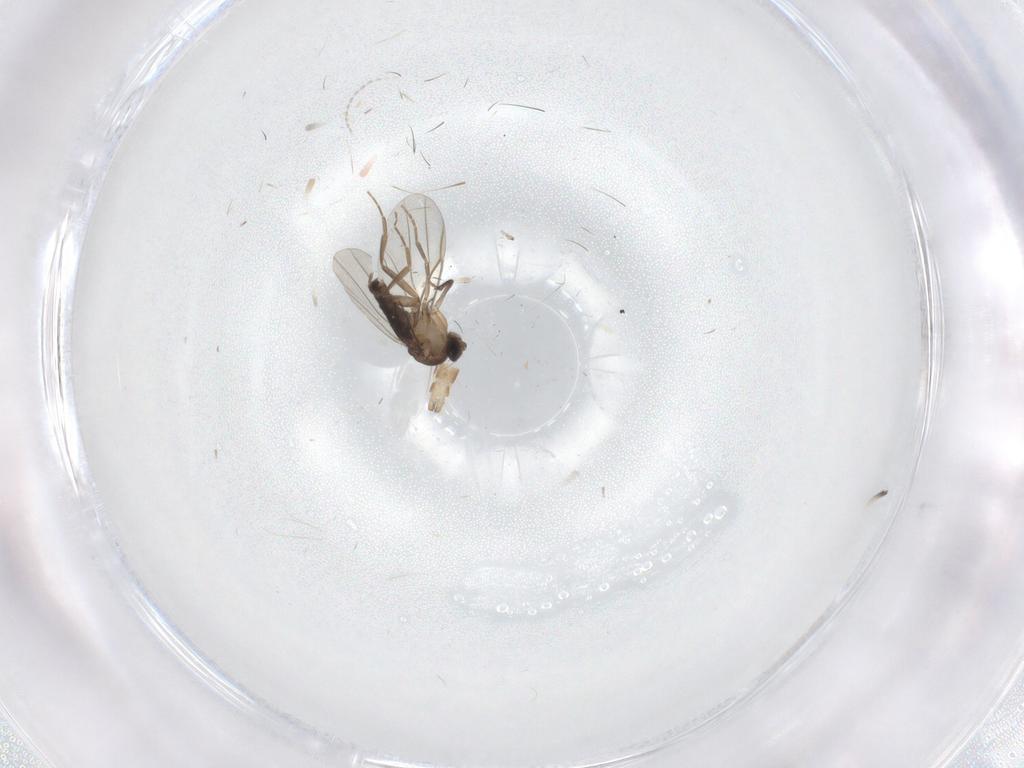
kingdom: Animalia
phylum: Arthropoda
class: Insecta
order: Diptera
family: Phoridae
